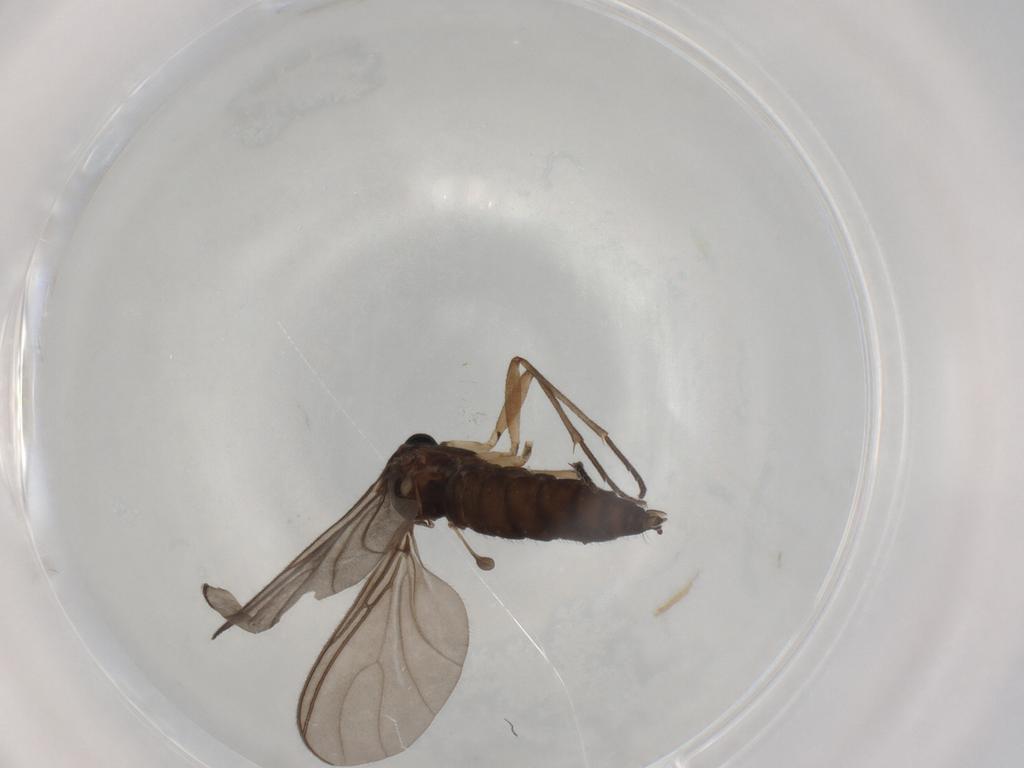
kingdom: Animalia
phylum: Arthropoda
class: Insecta
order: Diptera
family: Sciaridae
